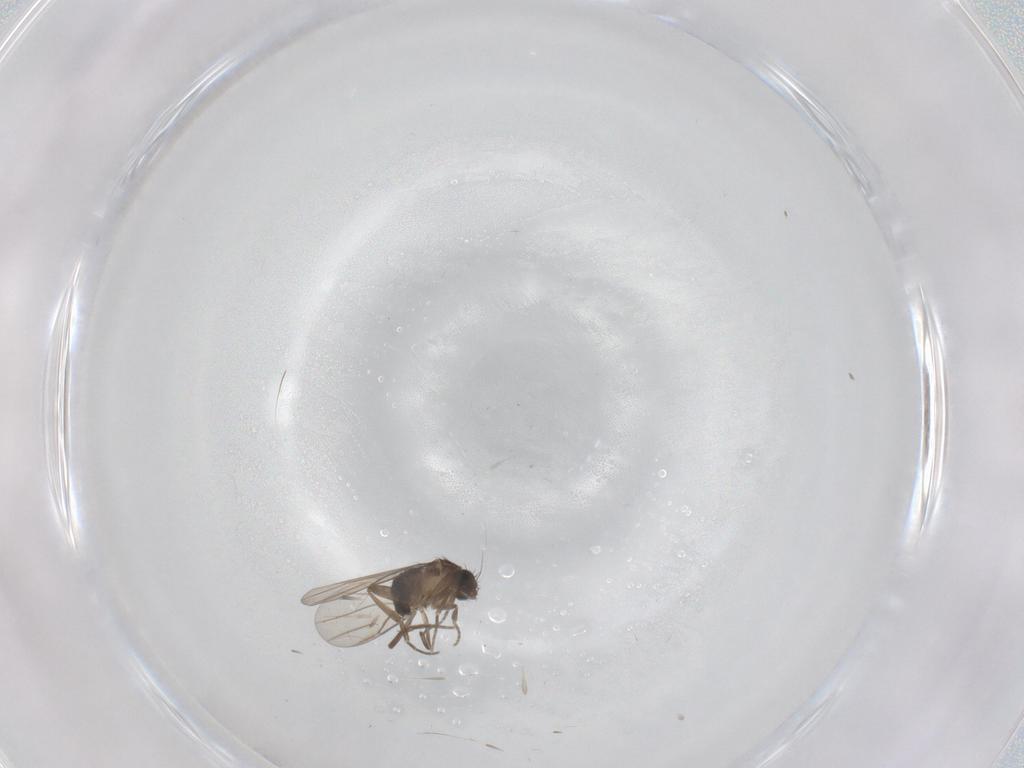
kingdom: Animalia
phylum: Arthropoda
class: Insecta
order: Diptera
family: Phoridae
